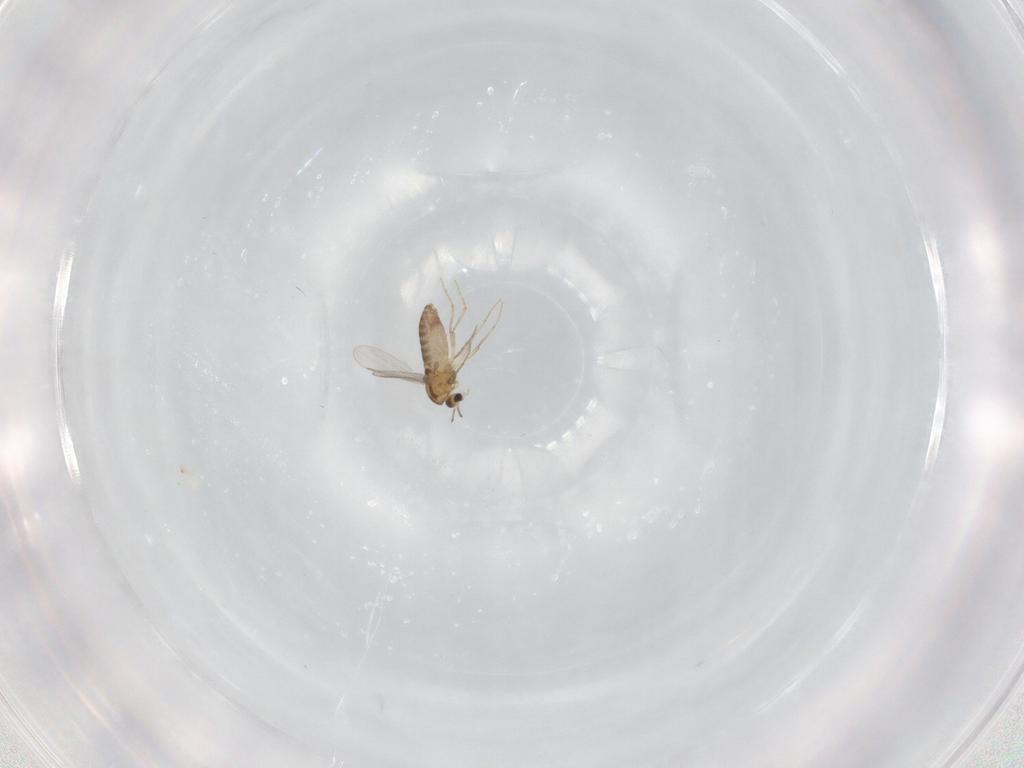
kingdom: Animalia
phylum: Arthropoda
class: Insecta
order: Diptera
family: Chironomidae
